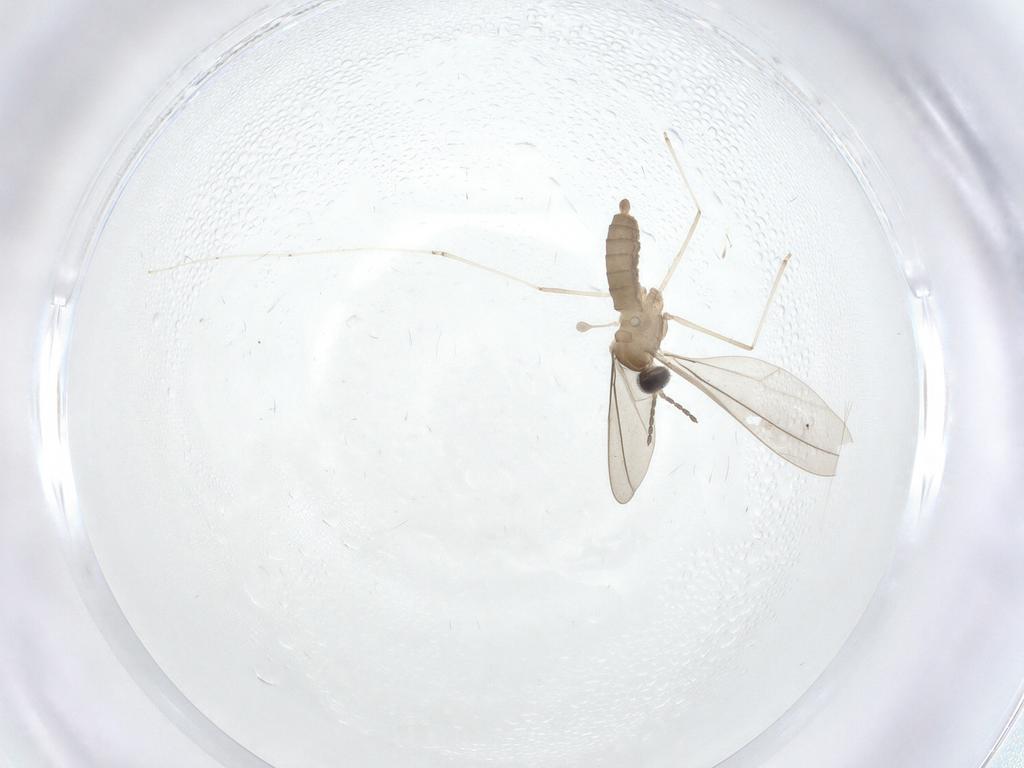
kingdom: Animalia
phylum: Arthropoda
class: Insecta
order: Diptera
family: Cecidomyiidae
